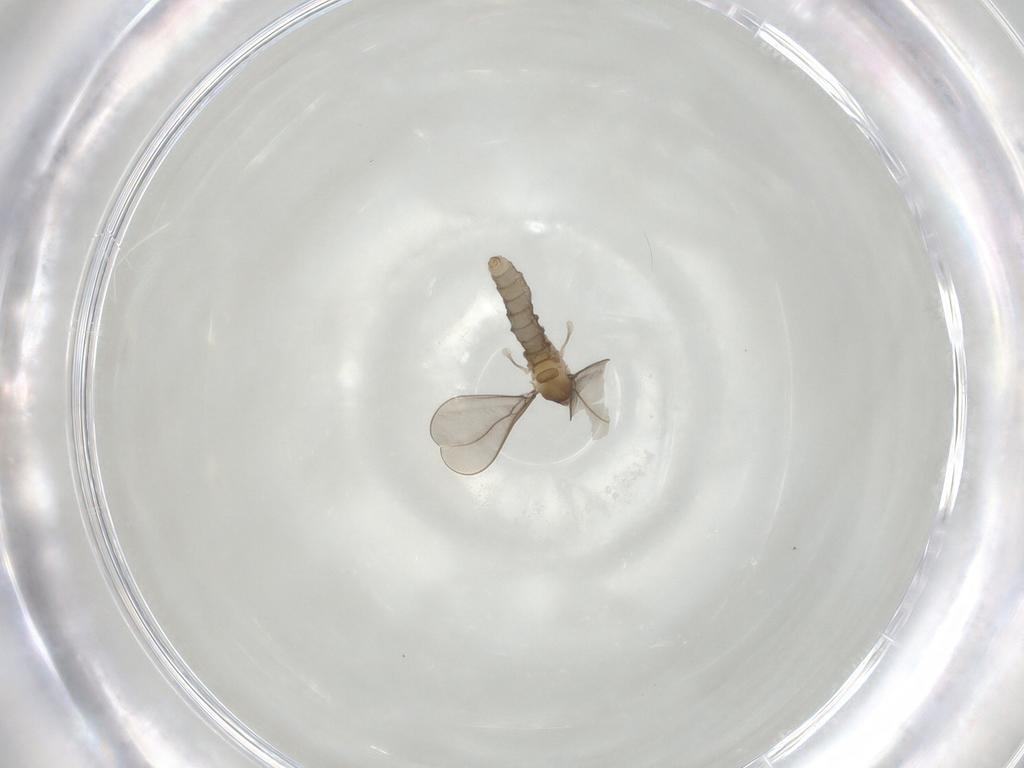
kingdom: Animalia
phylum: Arthropoda
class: Insecta
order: Diptera
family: Cecidomyiidae
